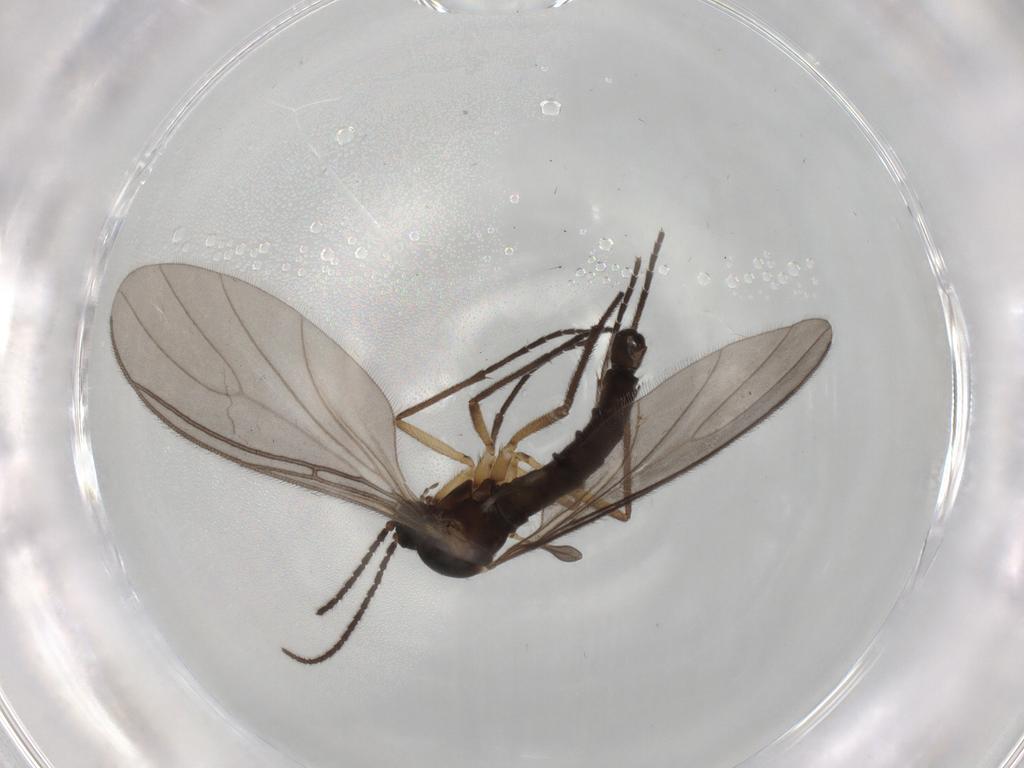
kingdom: Animalia
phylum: Arthropoda
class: Insecta
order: Diptera
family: Sciaridae
